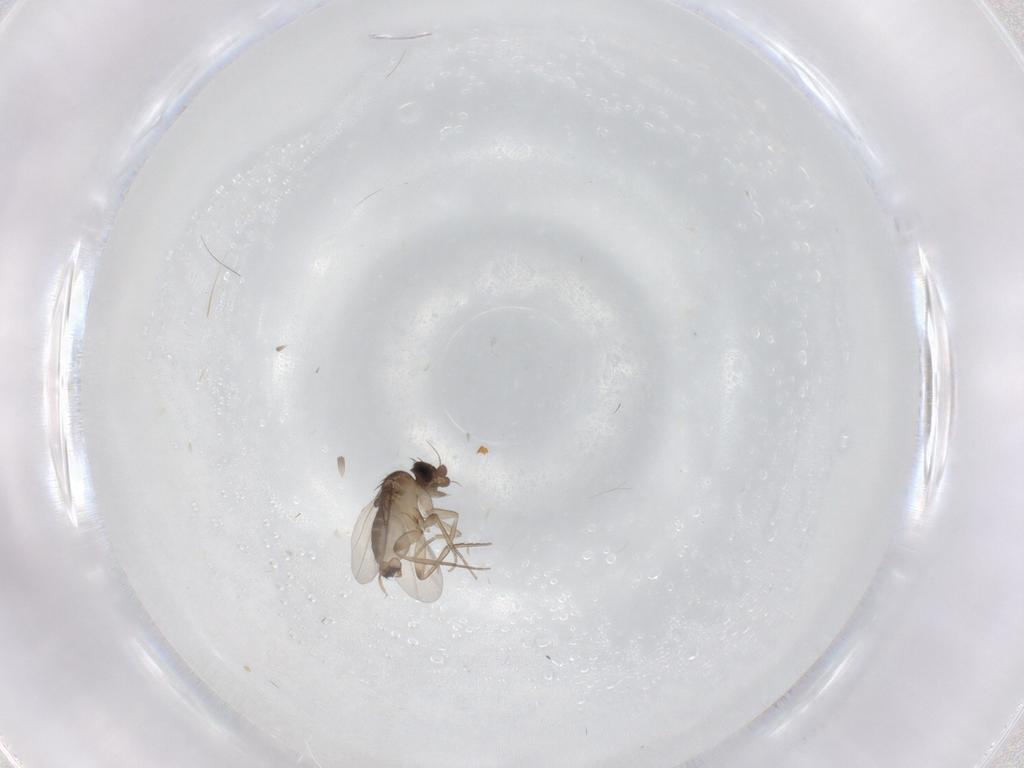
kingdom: Animalia
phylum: Arthropoda
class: Insecta
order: Diptera
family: Phoridae
